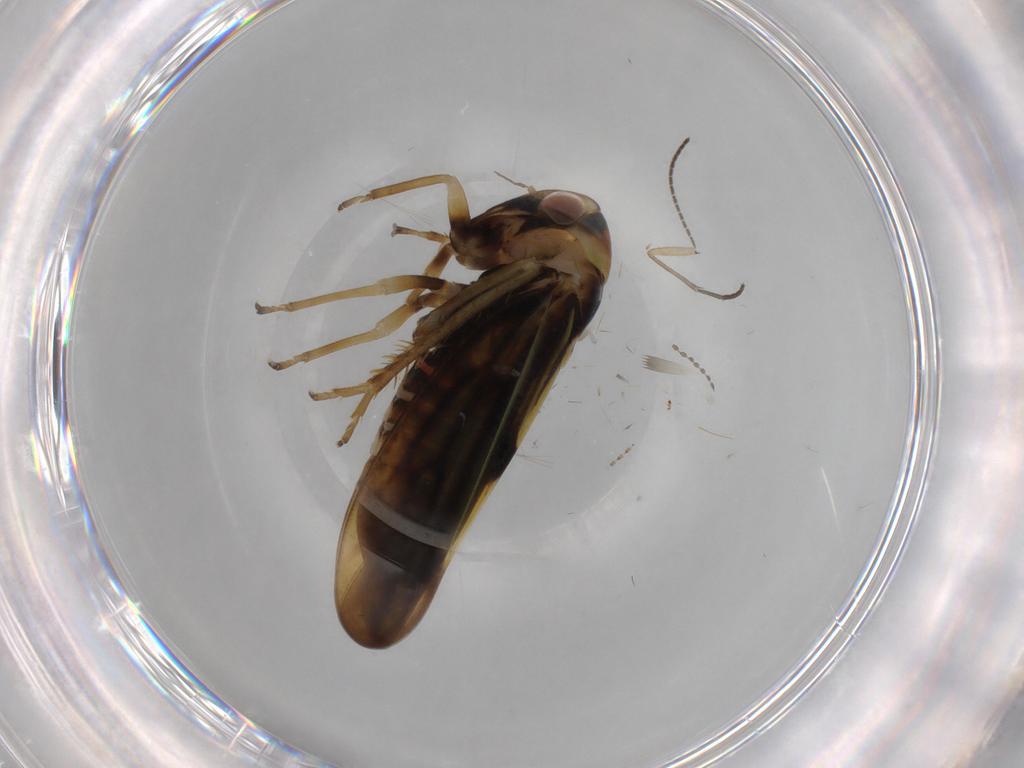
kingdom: Animalia
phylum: Arthropoda
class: Insecta
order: Hemiptera
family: Cicadellidae
